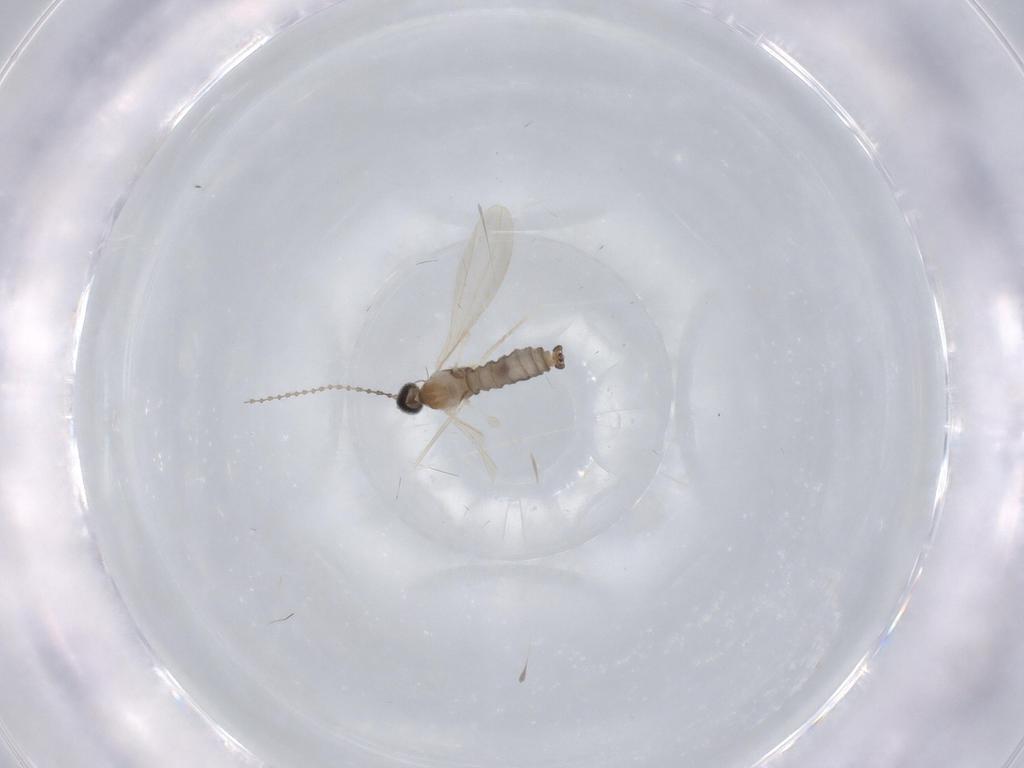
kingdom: Animalia
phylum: Arthropoda
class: Insecta
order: Diptera
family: Cecidomyiidae
